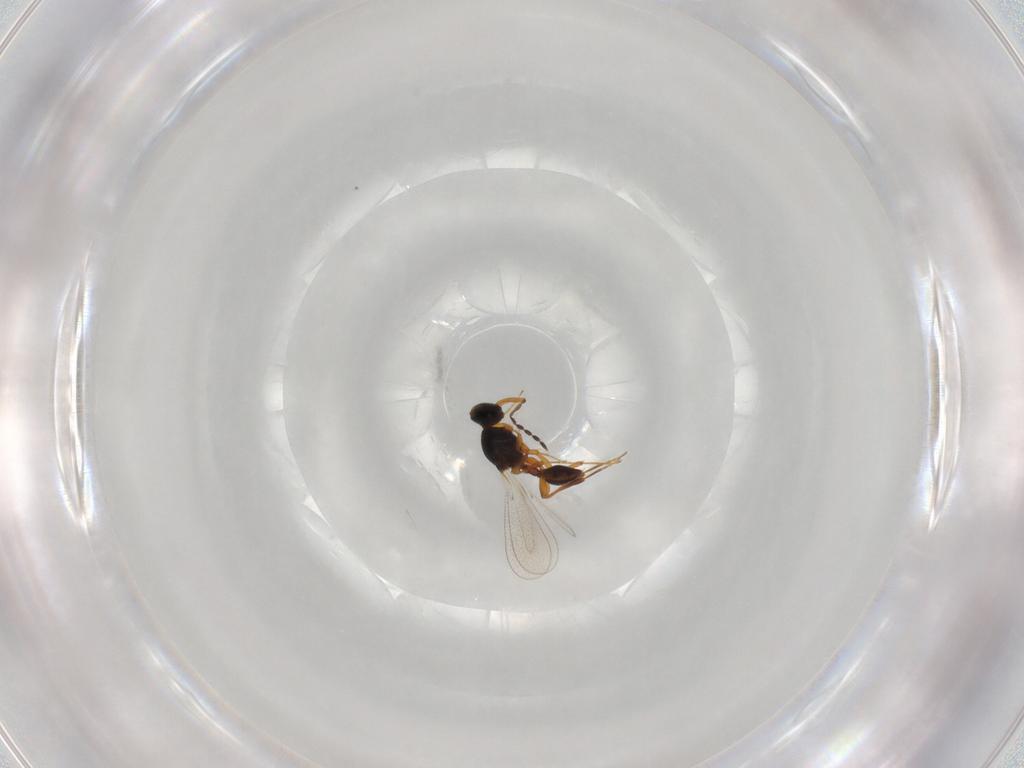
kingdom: Animalia
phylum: Arthropoda
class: Insecta
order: Hymenoptera
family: Platygastridae
